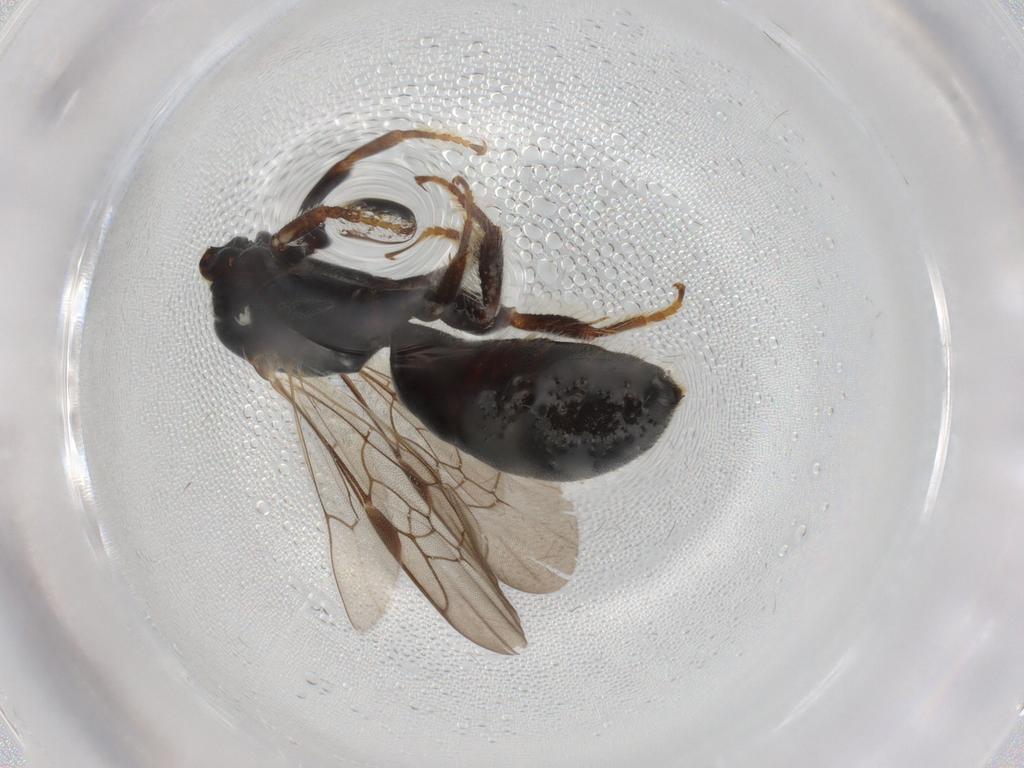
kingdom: Animalia
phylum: Arthropoda
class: Insecta
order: Hymenoptera
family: Apidae
